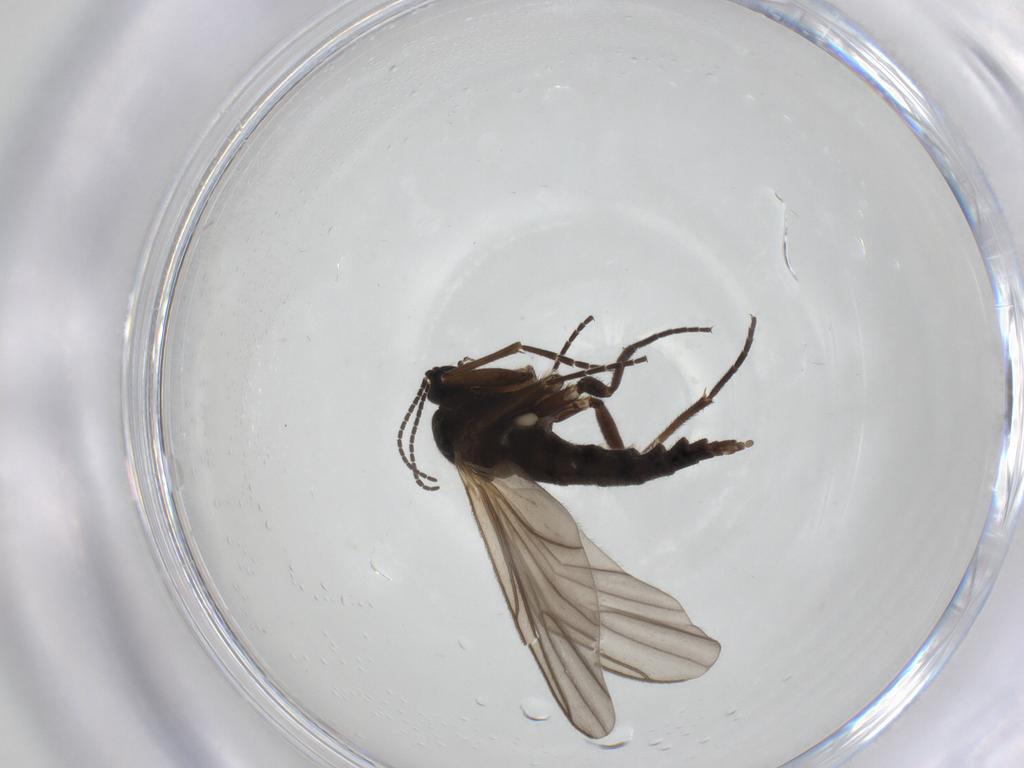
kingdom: Animalia
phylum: Arthropoda
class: Insecta
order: Diptera
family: Sciaridae
